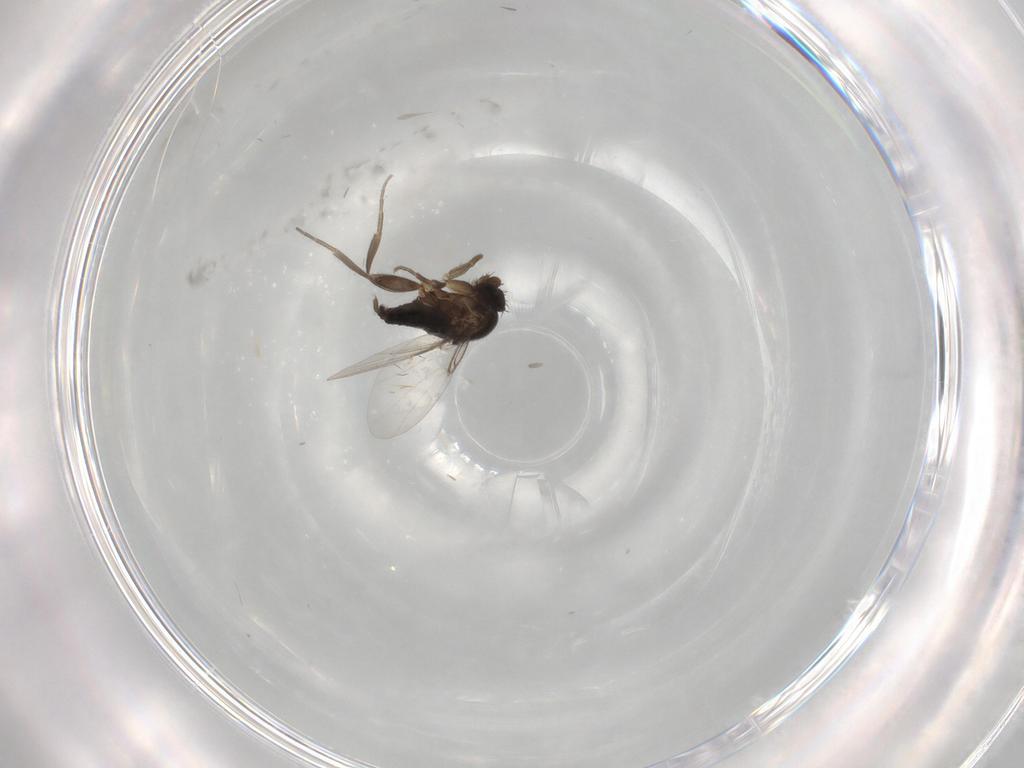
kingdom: Animalia
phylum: Arthropoda
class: Insecta
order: Diptera
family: Phoridae
